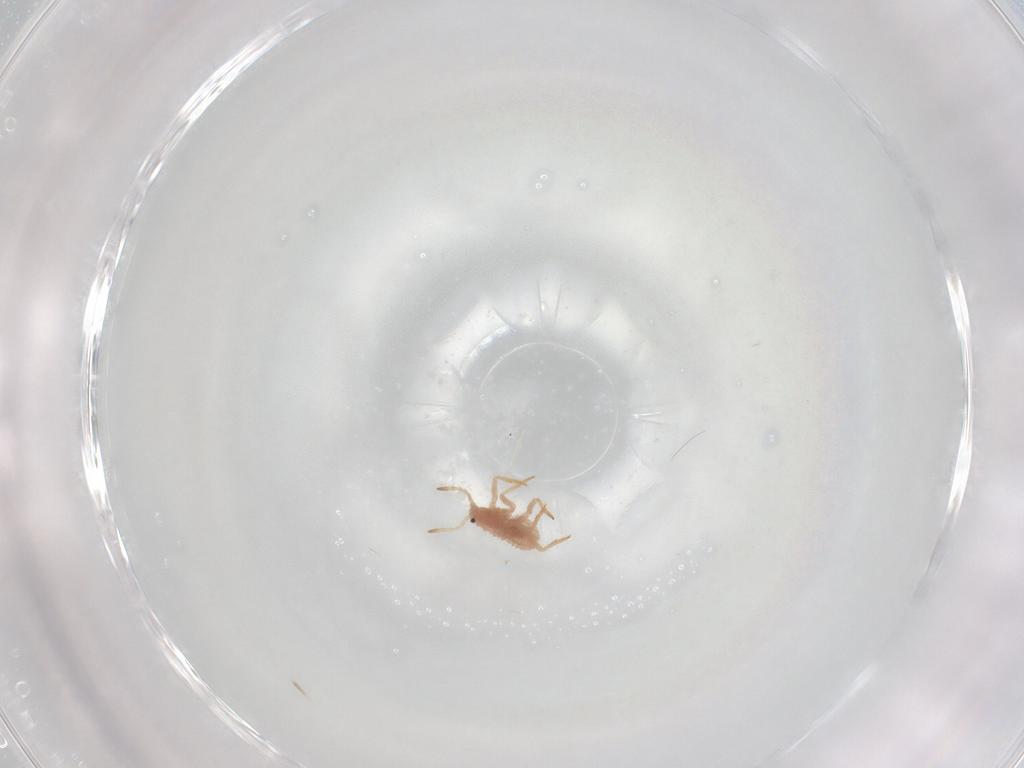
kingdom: Animalia
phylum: Arthropoda
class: Insecta
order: Hemiptera
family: Coccoidea_incertae_sedis
